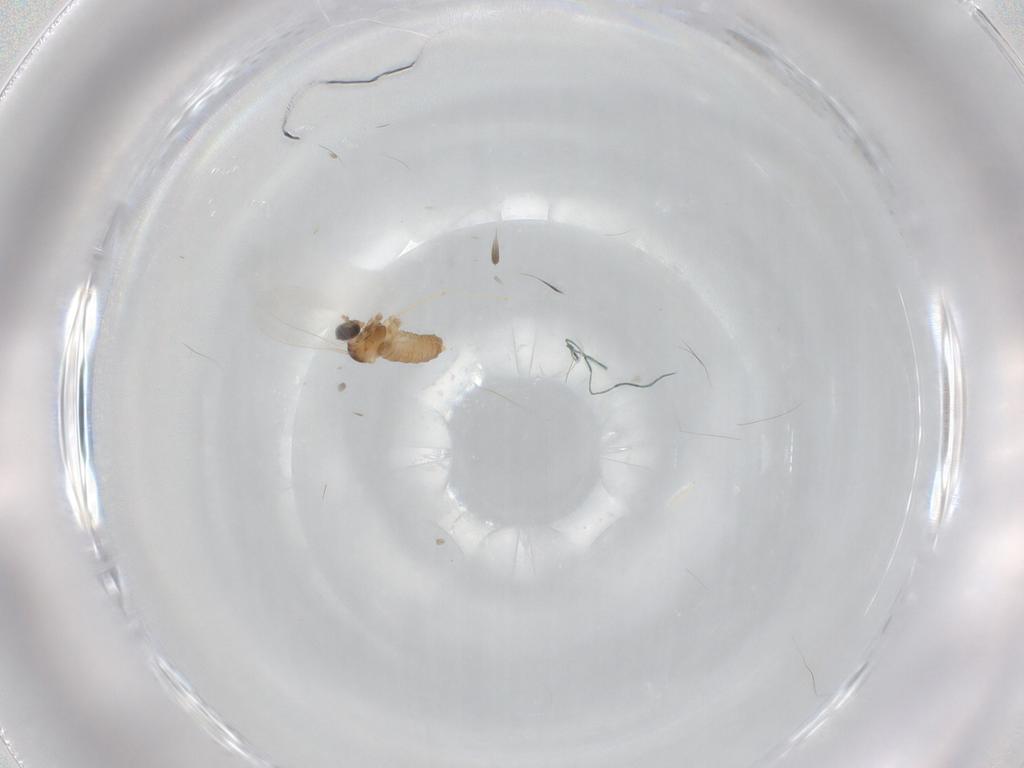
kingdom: Animalia
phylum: Arthropoda
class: Insecta
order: Diptera
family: Cecidomyiidae
